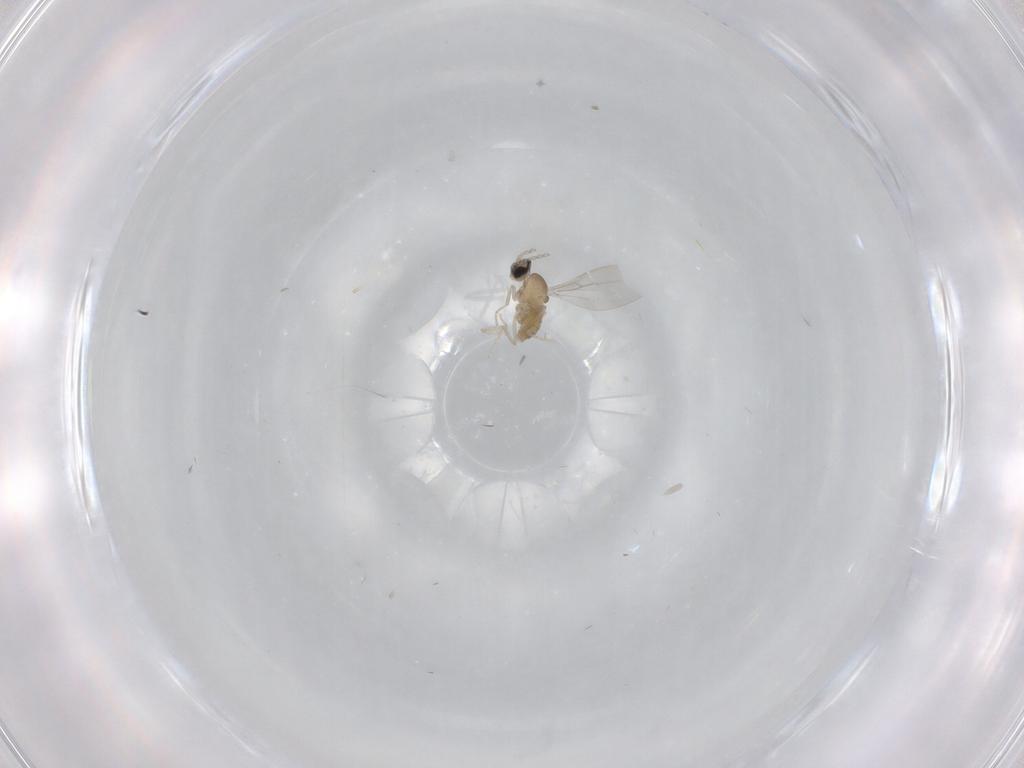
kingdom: Animalia
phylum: Arthropoda
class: Insecta
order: Diptera
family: Cecidomyiidae
